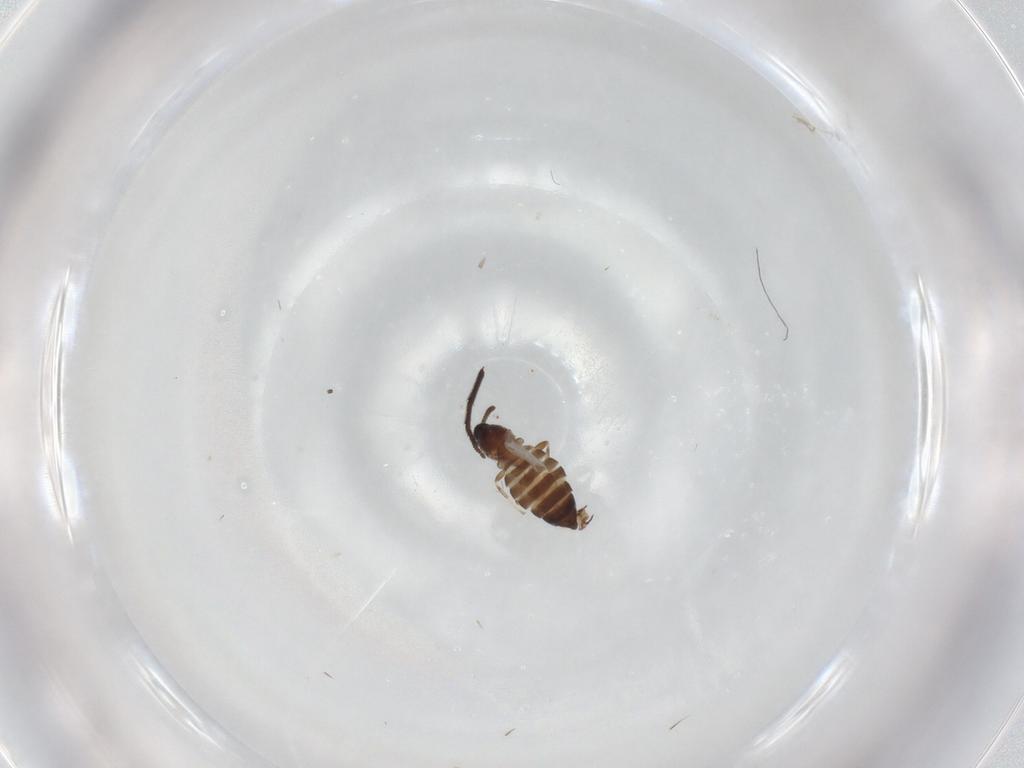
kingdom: Animalia
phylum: Arthropoda
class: Insecta
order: Diptera
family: Scatopsidae
